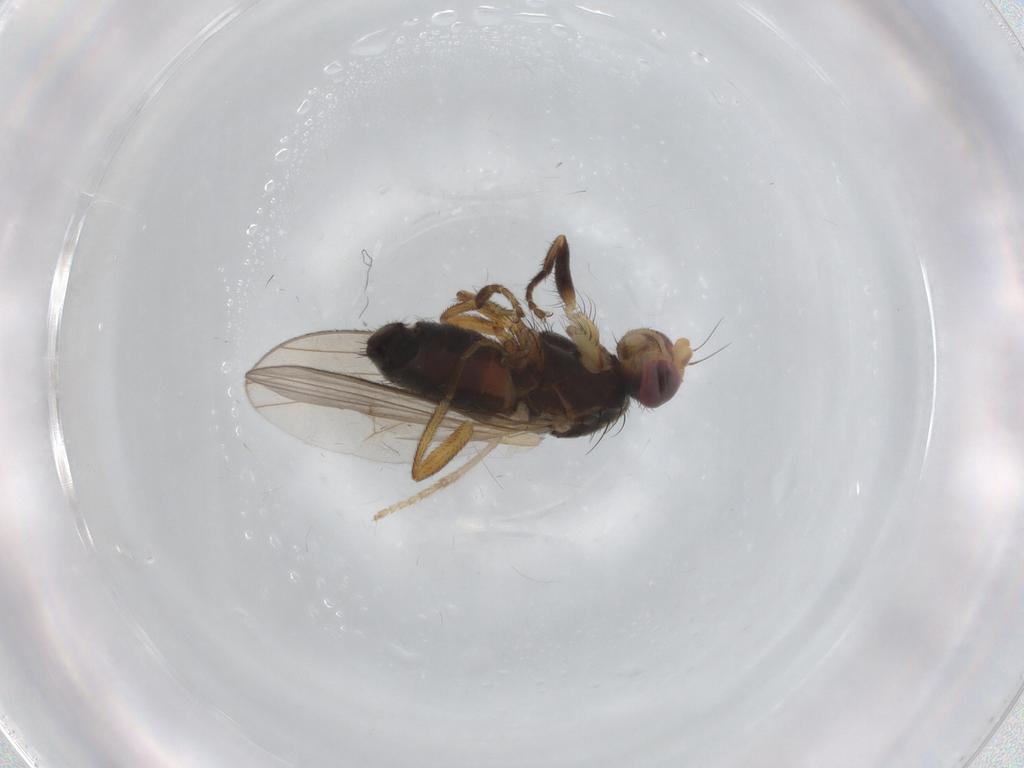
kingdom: Animalia
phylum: Arthropoda
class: Insecta
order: Diptera
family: Heleomyzidae
